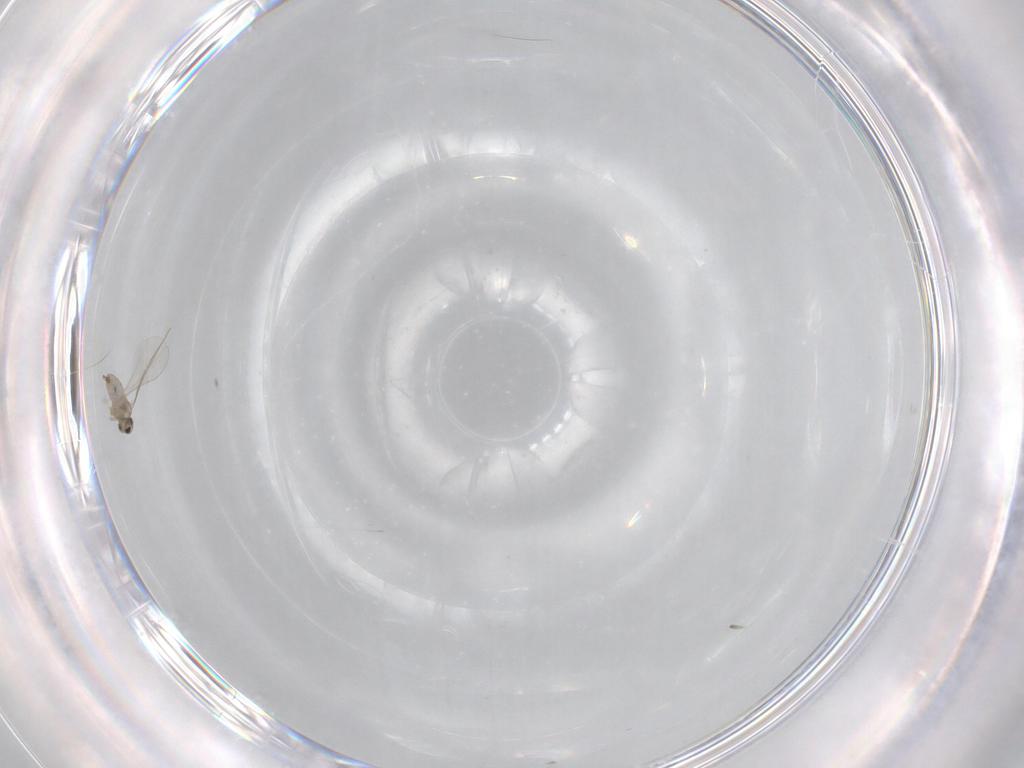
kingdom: Animalia
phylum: Arthropoda
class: Insecta
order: Diptera
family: Cecidomyiidae
